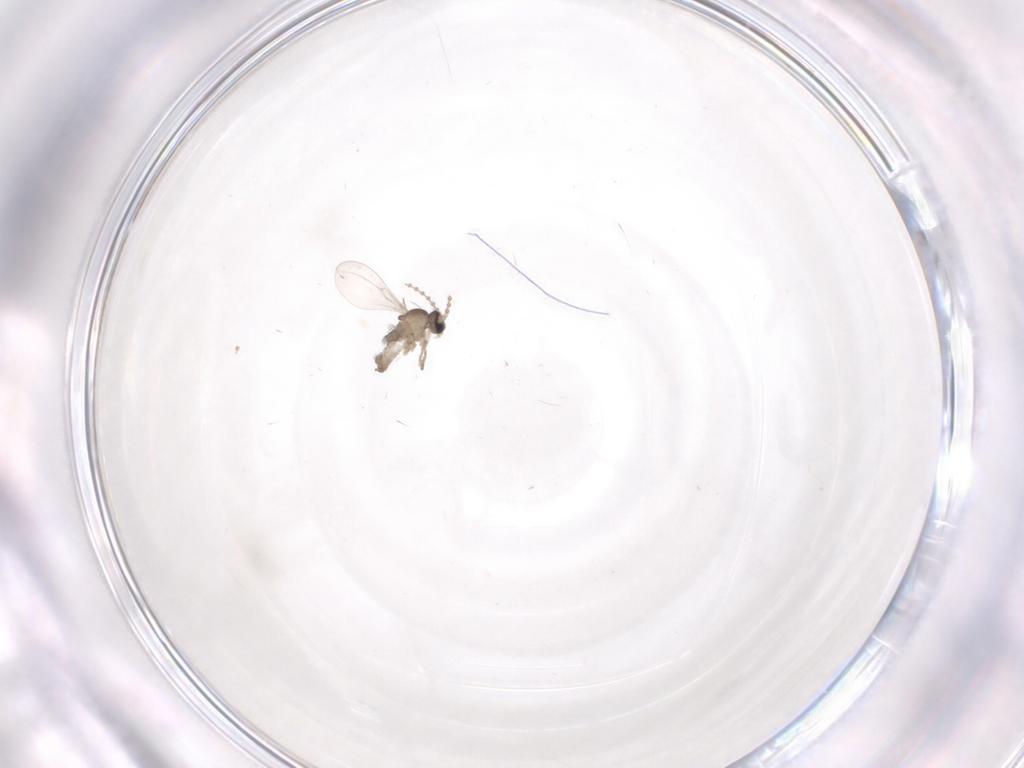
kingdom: Animalia
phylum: Arthropoda
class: Insecta
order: Diptera
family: Cecidomyiidae
